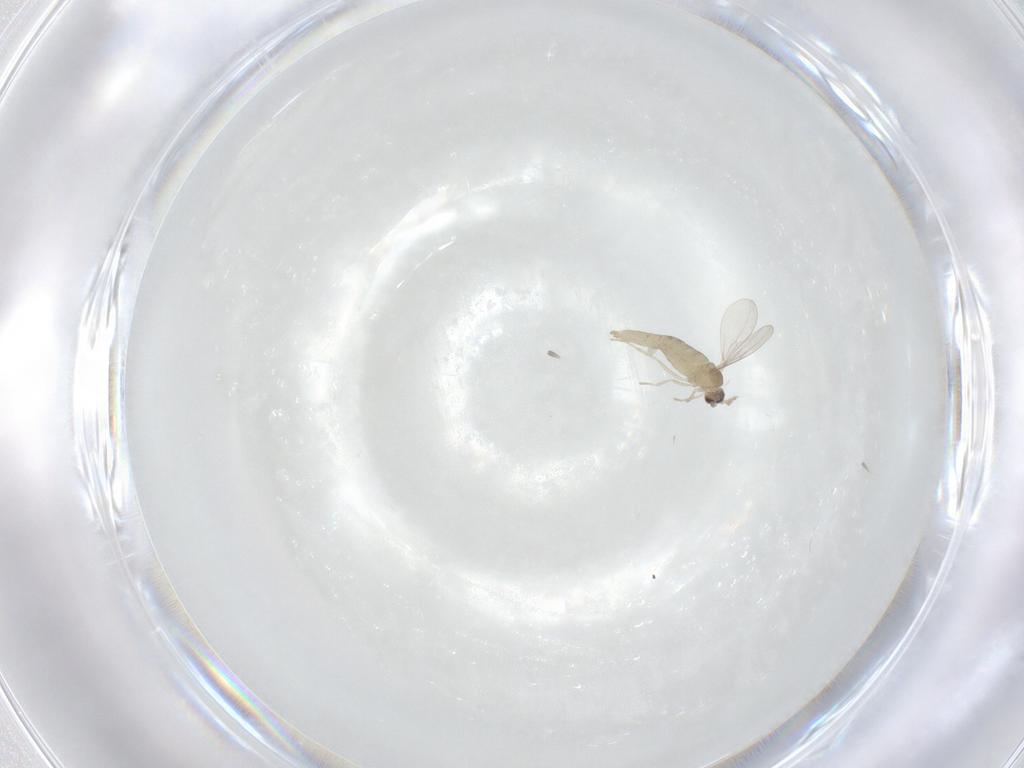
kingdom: Animalia
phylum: Arthropoda
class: Insecta
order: Diptera
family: Cecidomyiidae
